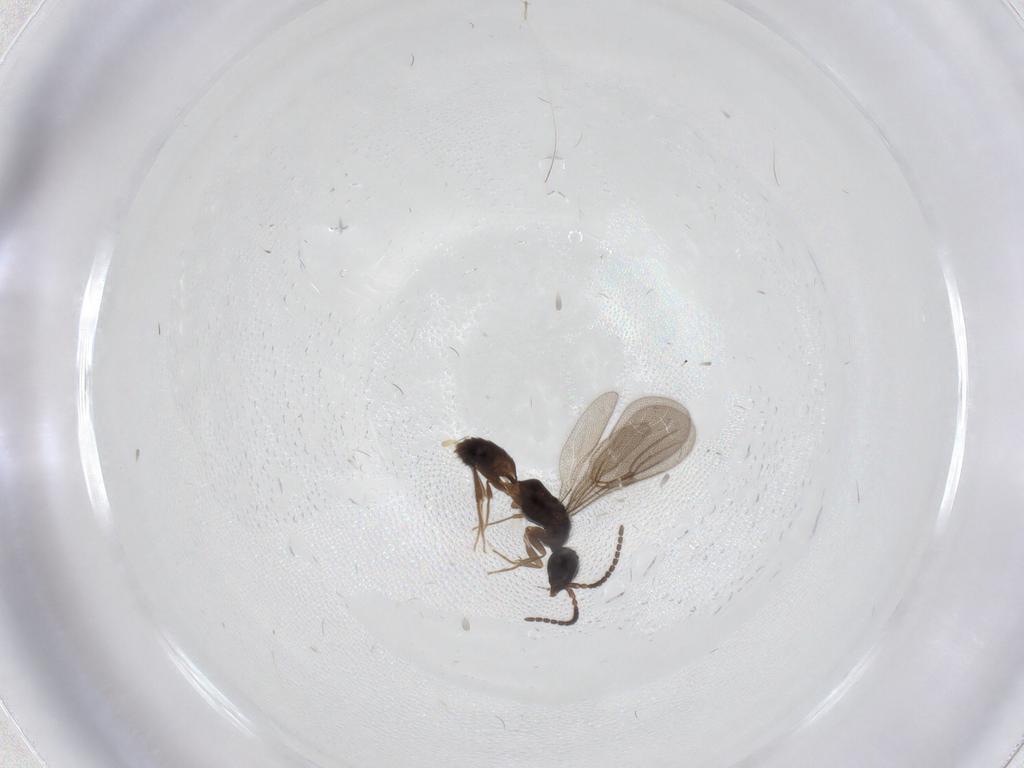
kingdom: Animalia
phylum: Arthropoda
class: Insecta
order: Hymenoptera
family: Bethylidae
